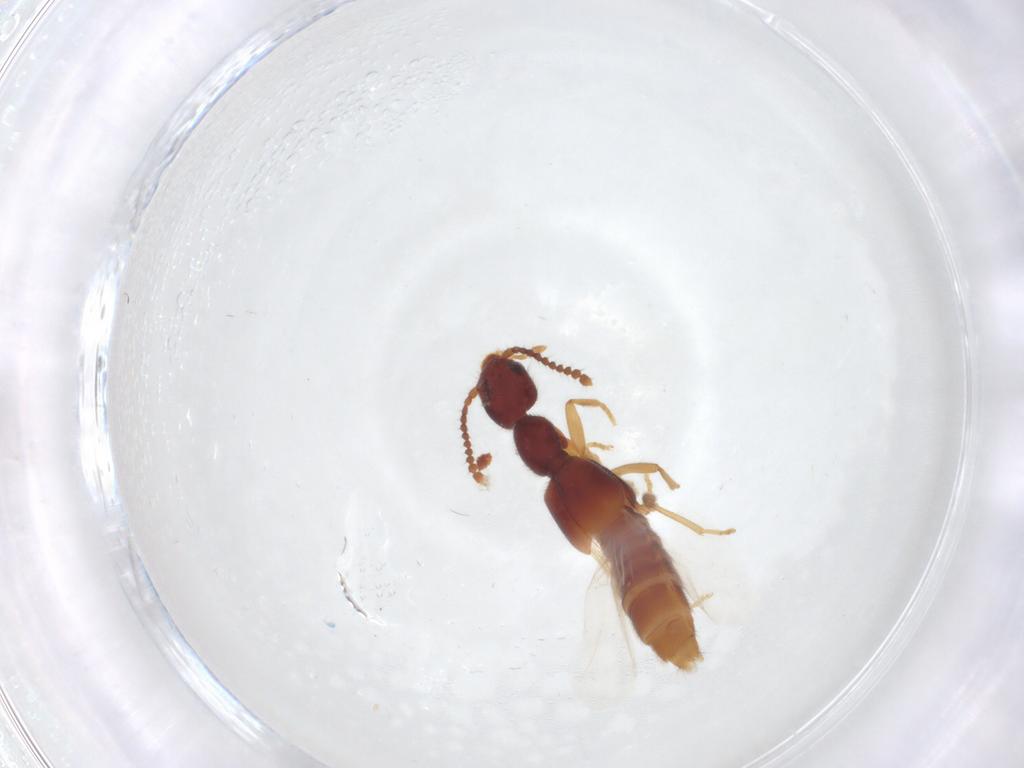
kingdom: Animalia
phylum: Arthropoda
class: Insecta
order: Coleoptera
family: Staphylinidae
